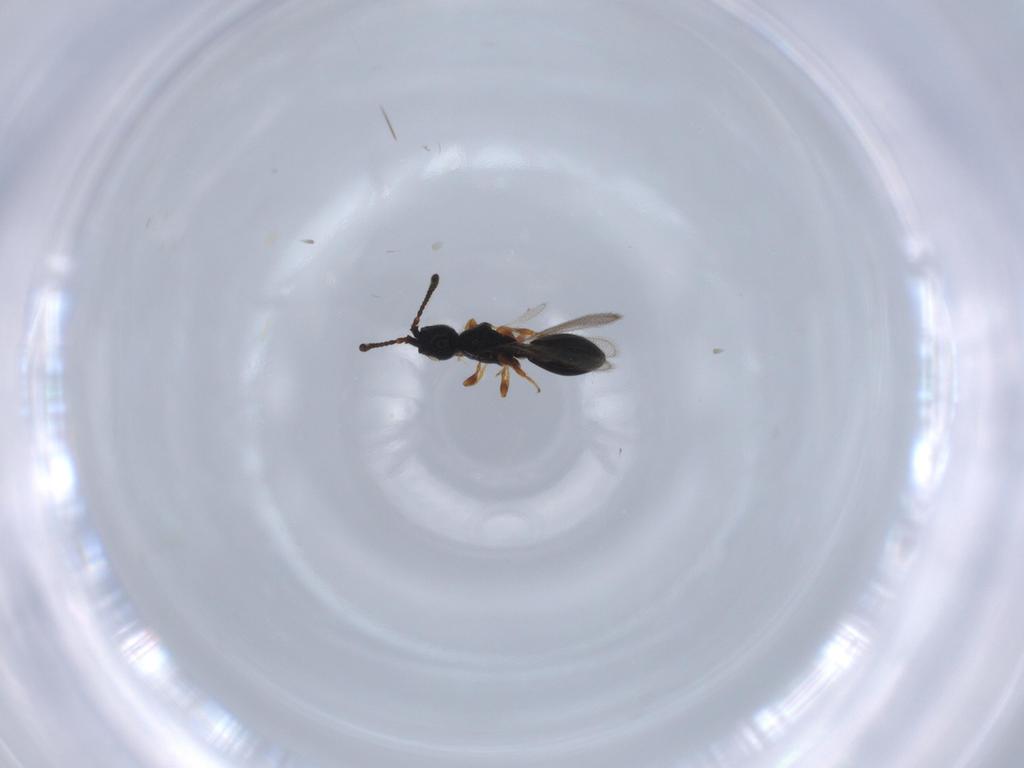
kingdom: Animalia
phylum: Arthropoda
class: Insecta
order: Hymenoptera
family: Diapriidae
